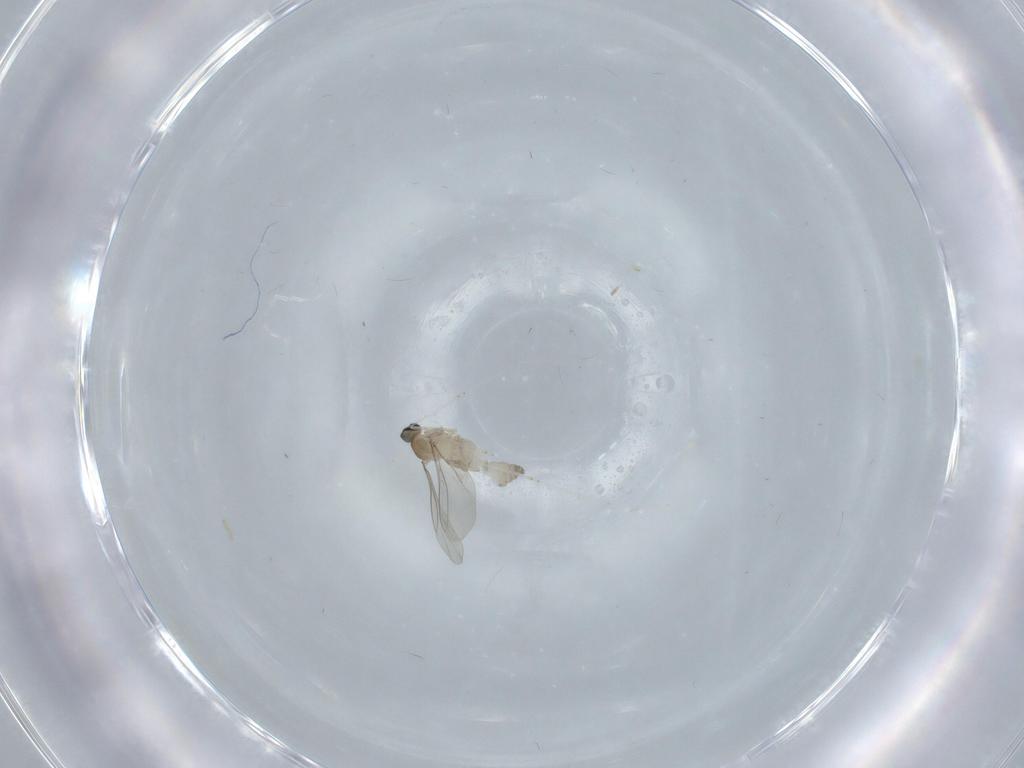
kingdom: Animalia
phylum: Arthropoda
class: Insecta
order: Diptera
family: Cecidomyiidae
